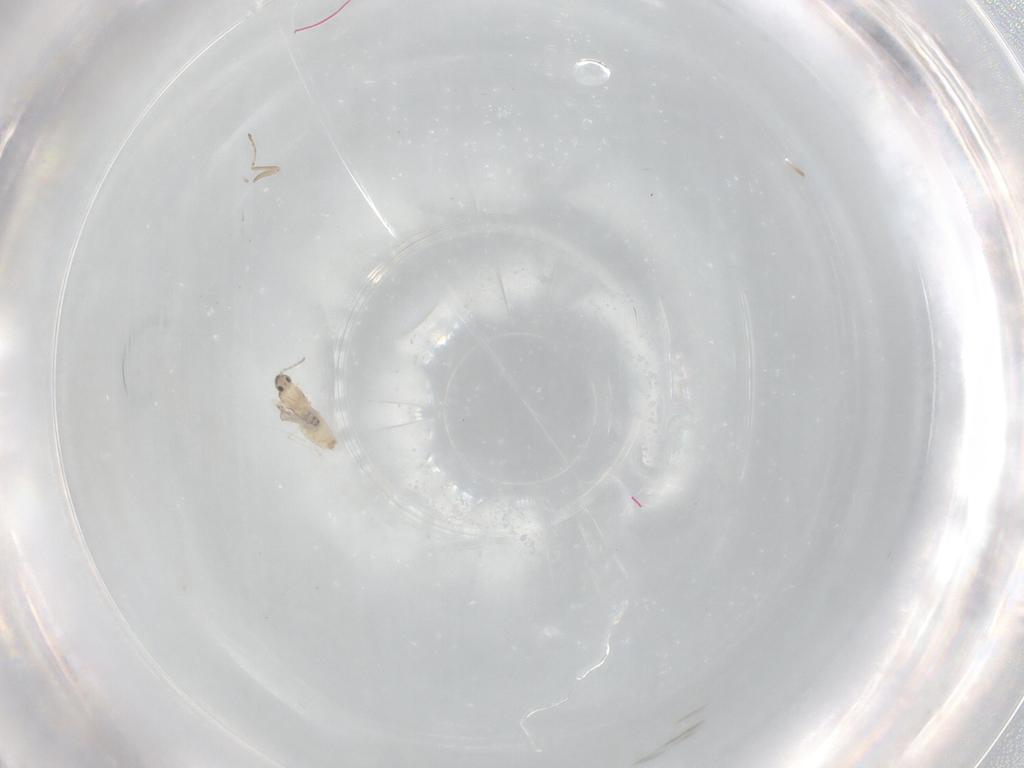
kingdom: Animalia
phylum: Arthropoda
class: Insecta
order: Diptera
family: Cecidomyiidae
